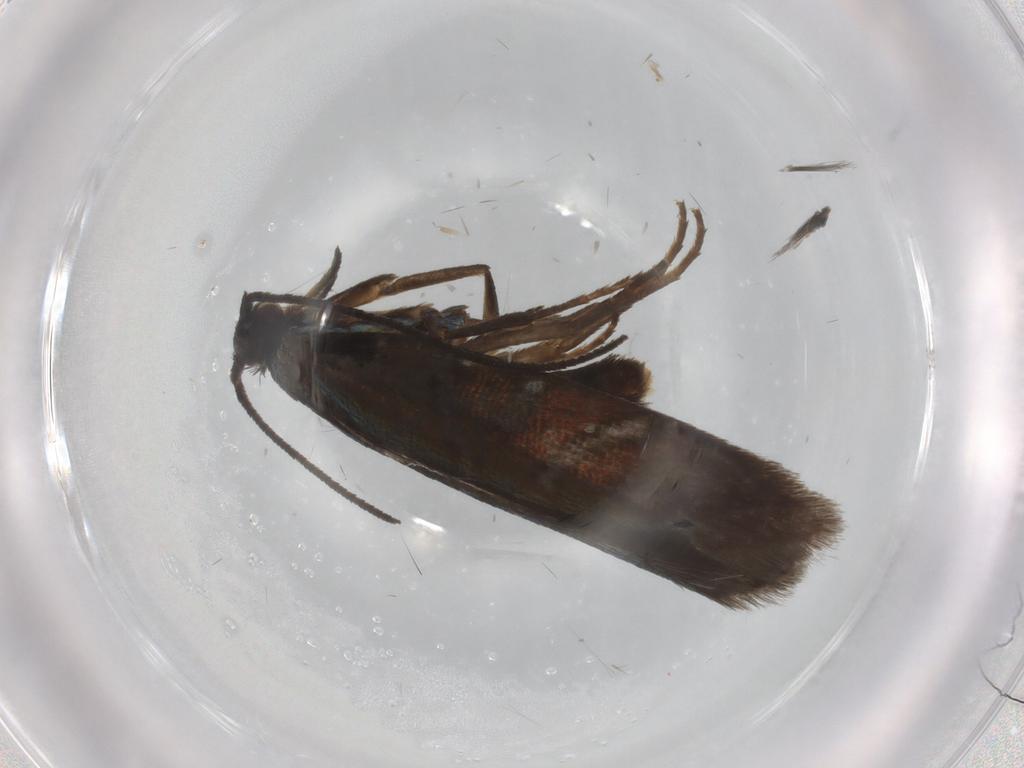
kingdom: Animalia
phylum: Arthropoda
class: Insecta
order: Lepidoptera
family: Argyresthiidae
